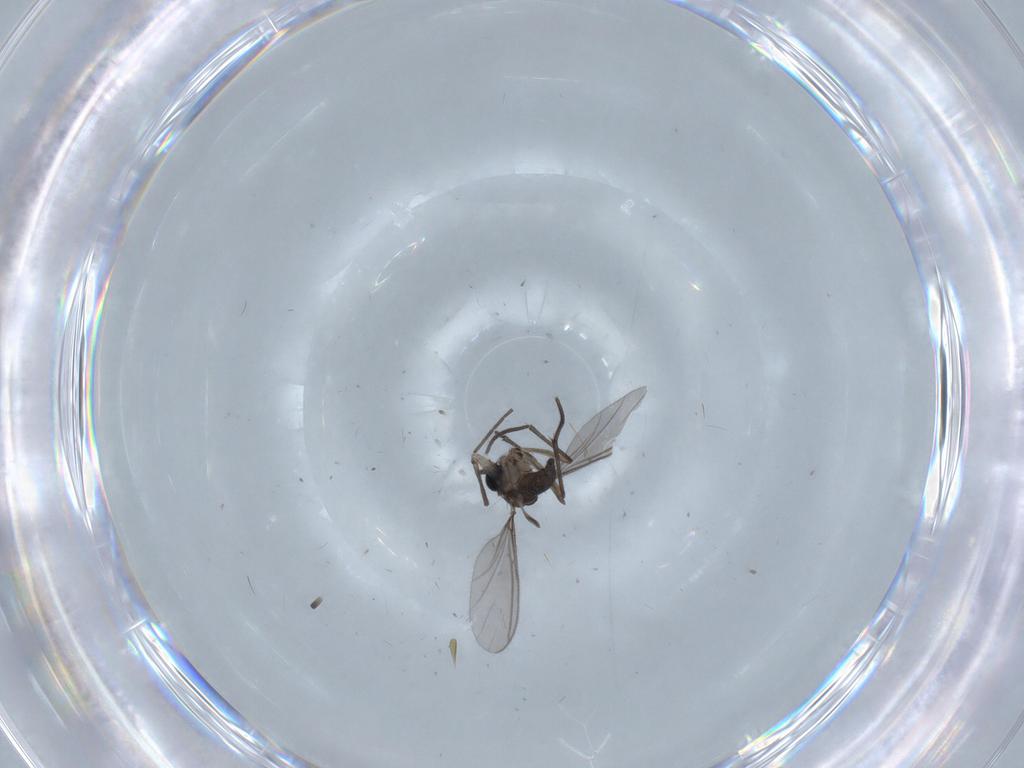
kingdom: Animalia
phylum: Arthropoda
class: Insecta
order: Diptera
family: Sciaridae
